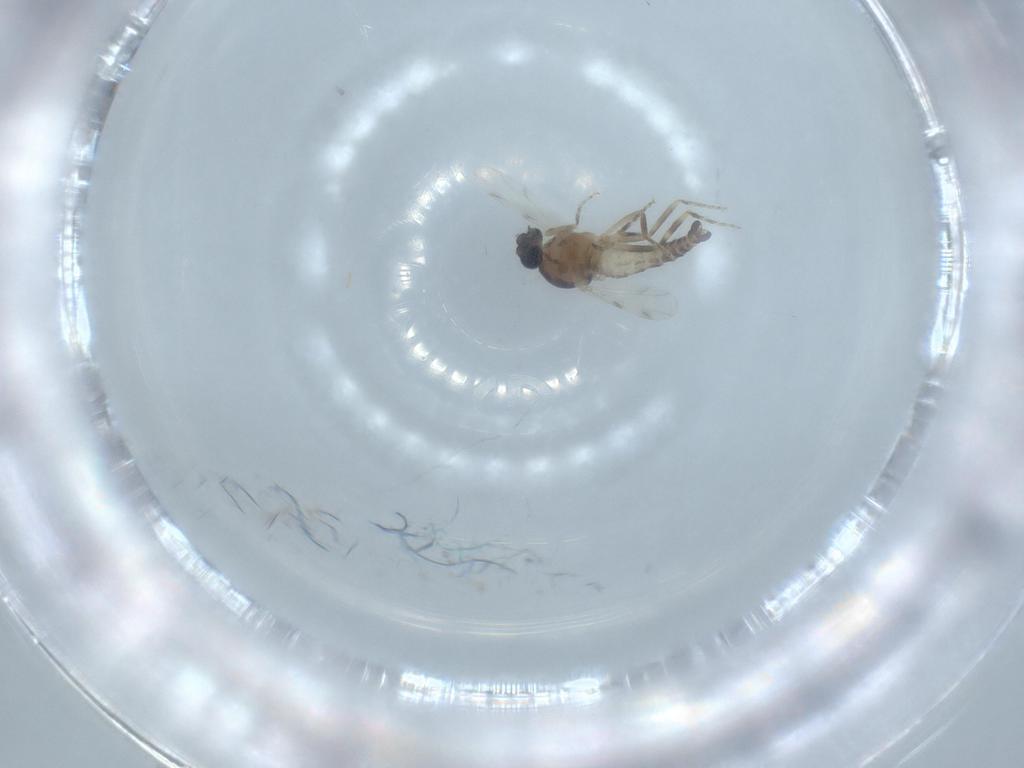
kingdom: Animalia
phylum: Arthropoda
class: Insecta
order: Diptera
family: Ceratopogonidae
